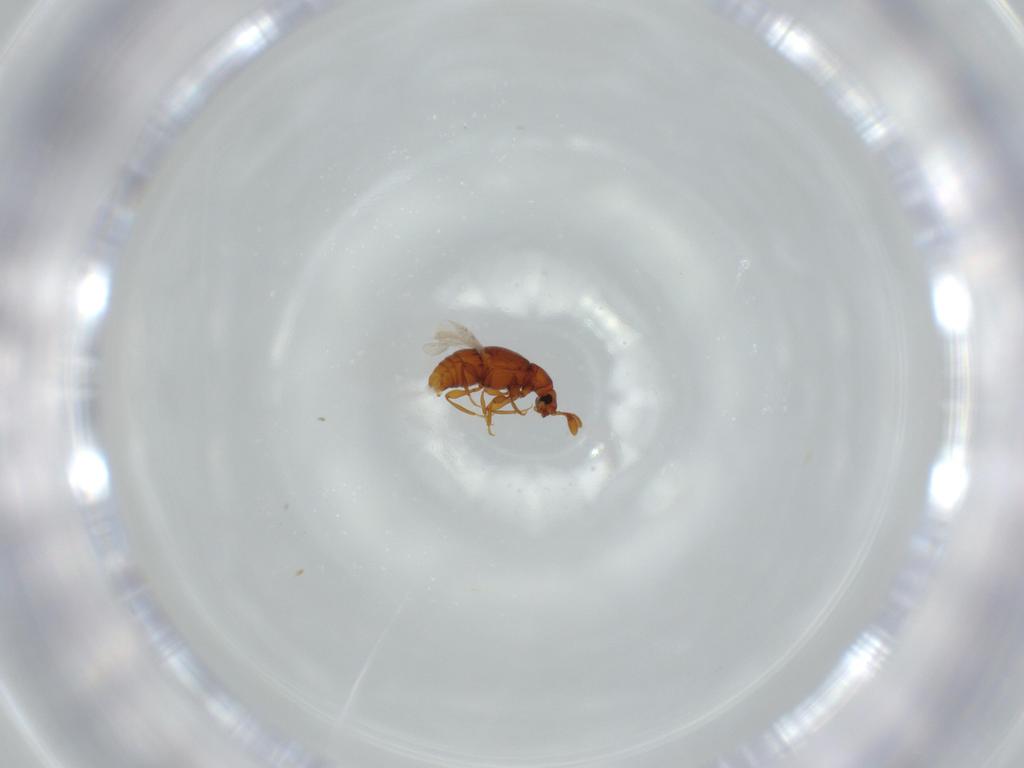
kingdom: Animalia
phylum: Arthropoda
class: Insecta
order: Coleoptera
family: Chrysomelidae
